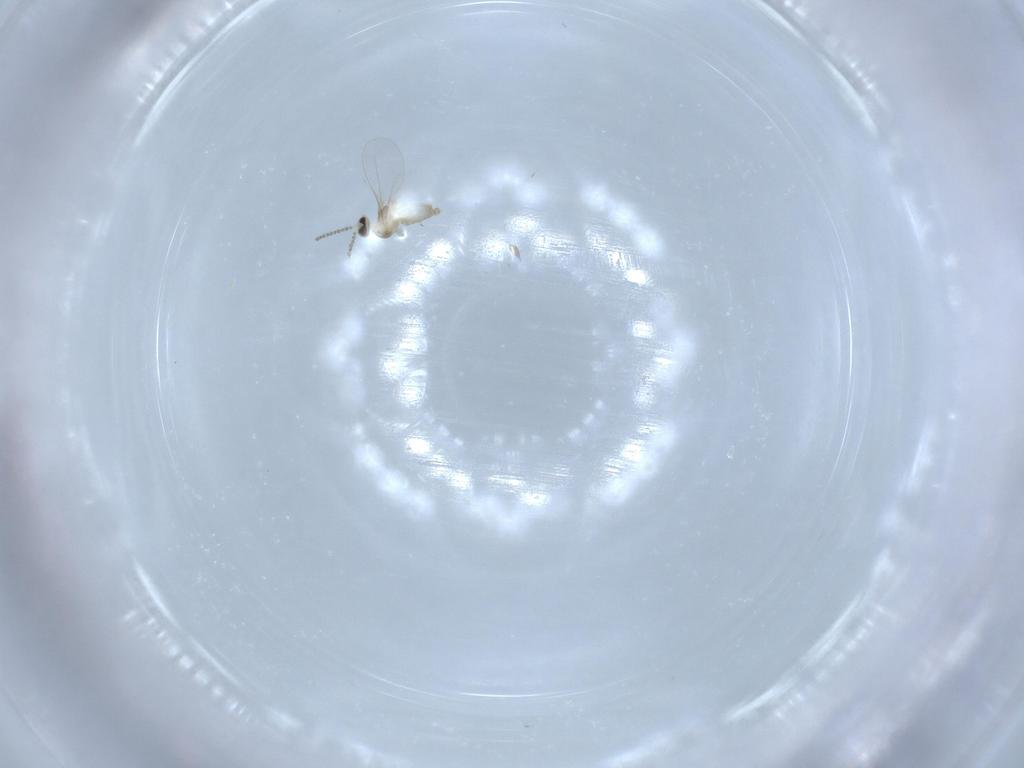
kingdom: Animalia
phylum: Arthropoda
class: Insecta
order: Diptera
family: Cecidomyiidae
